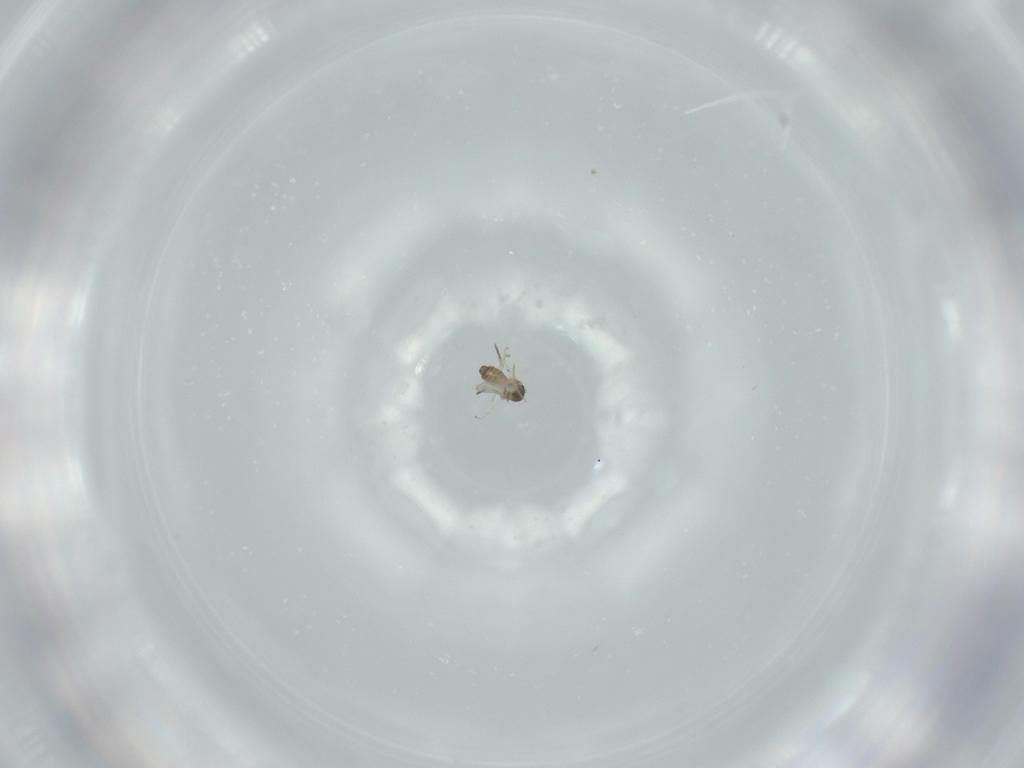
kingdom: Animalia
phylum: Arthropoda
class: Insecta
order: Diptera
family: Cecidomyiidae
